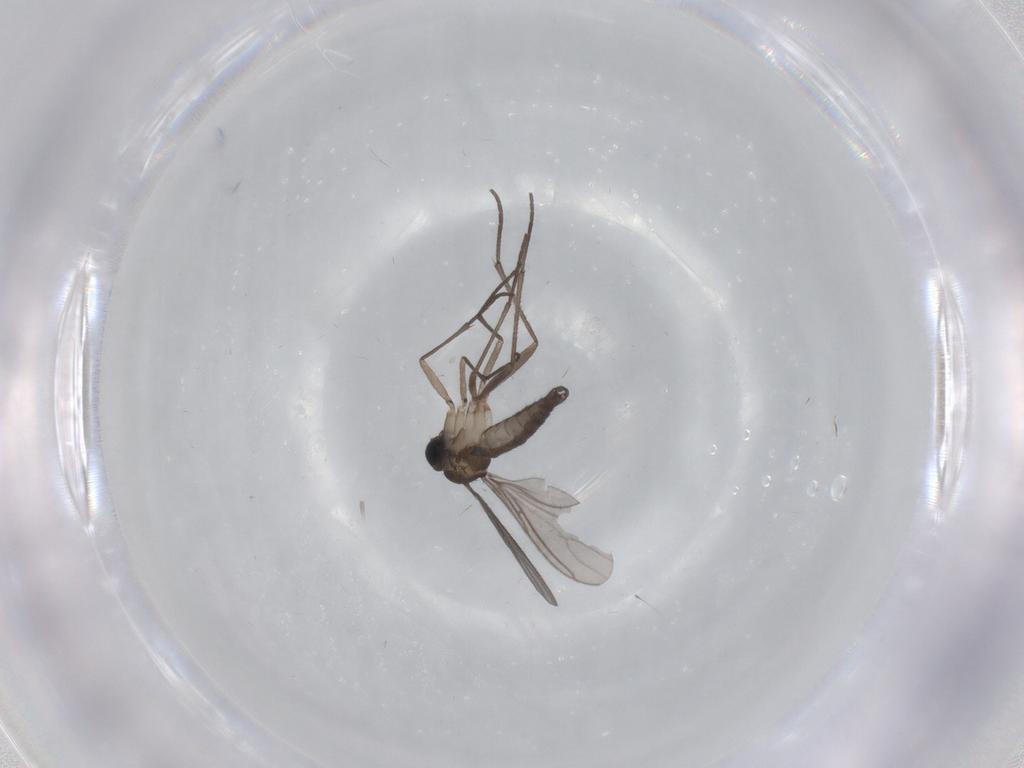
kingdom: Animalia
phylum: Arthropoda
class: Insecta
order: Diptera
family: Sciaridae
